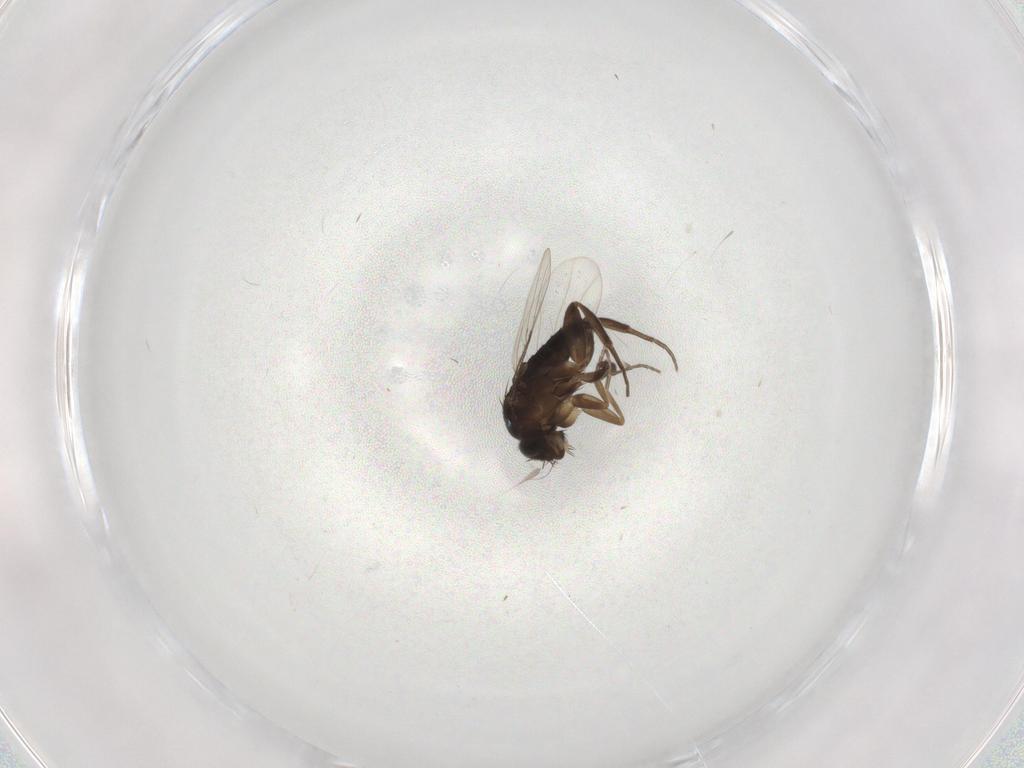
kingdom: Animalia
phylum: Arthropoda
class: Insecta
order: Diptera
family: Phoridae
